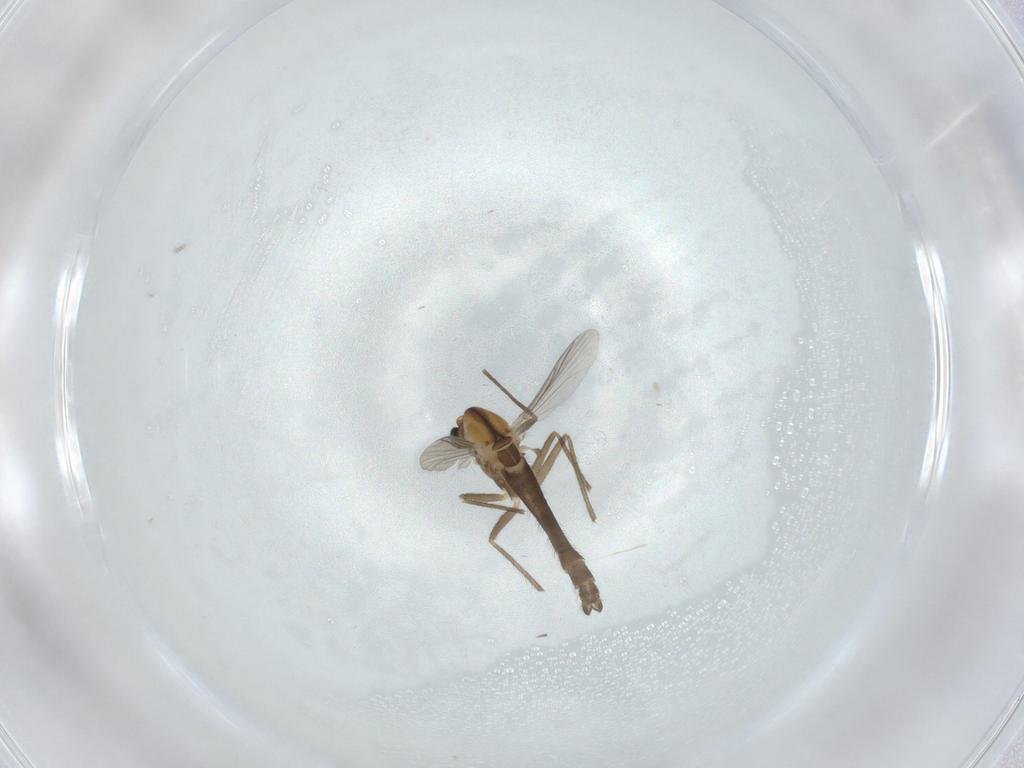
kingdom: Animalia
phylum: Arthropoda
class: Insecta
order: Diptera
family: Chironomidae
